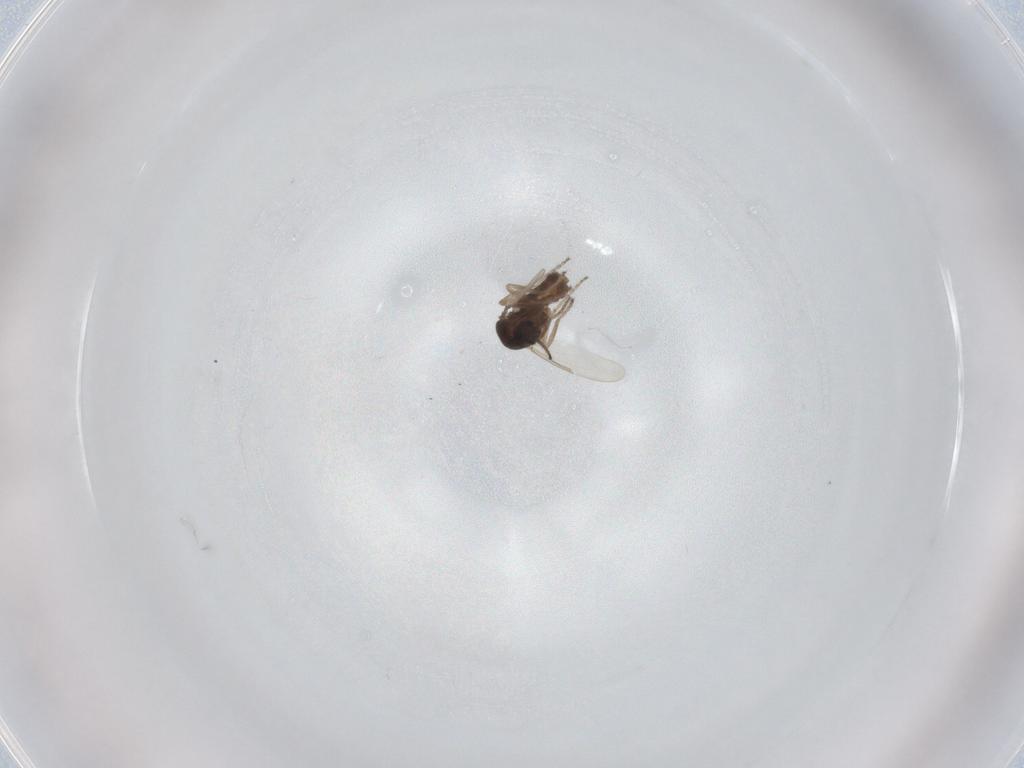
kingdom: Animalia
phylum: Arthropoda
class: Insecta
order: Diptera
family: Ceratopogonidae
